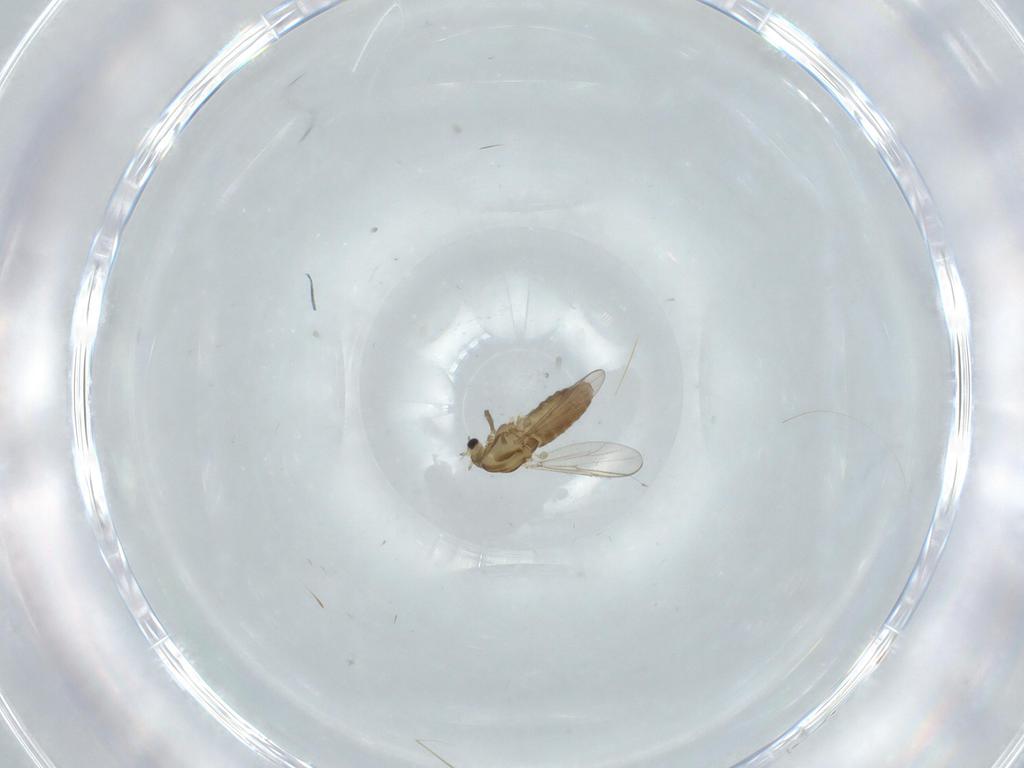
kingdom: Animalia
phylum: Arthropoda
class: Insecta
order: Diptera
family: Chironomidae
